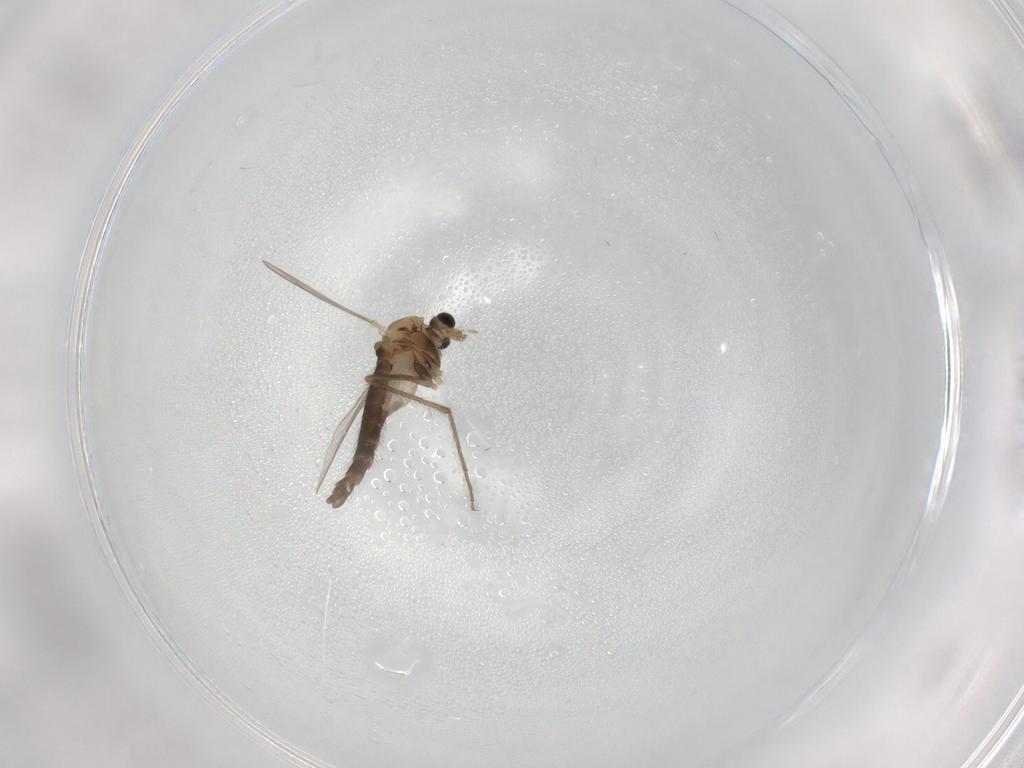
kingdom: Animalia
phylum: Arthropoda
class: Insecta
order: Diptera
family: Chironomidae
